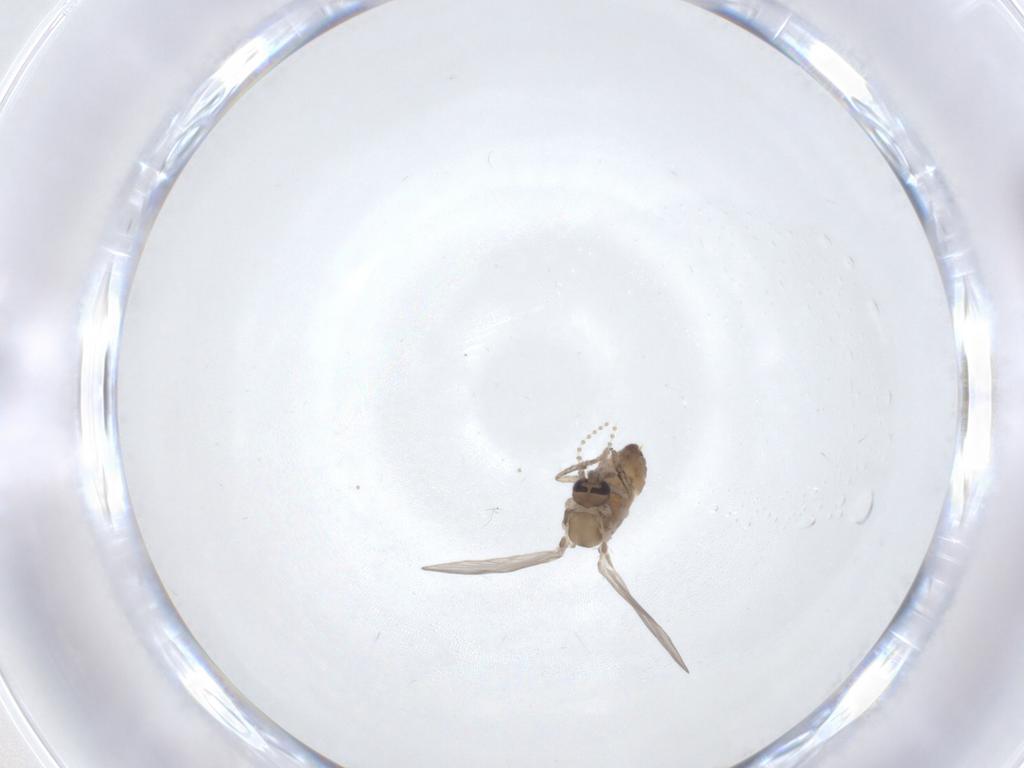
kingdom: Animalia
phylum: Arthropoda
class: Insecta
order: Diptera
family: Psychodidae
